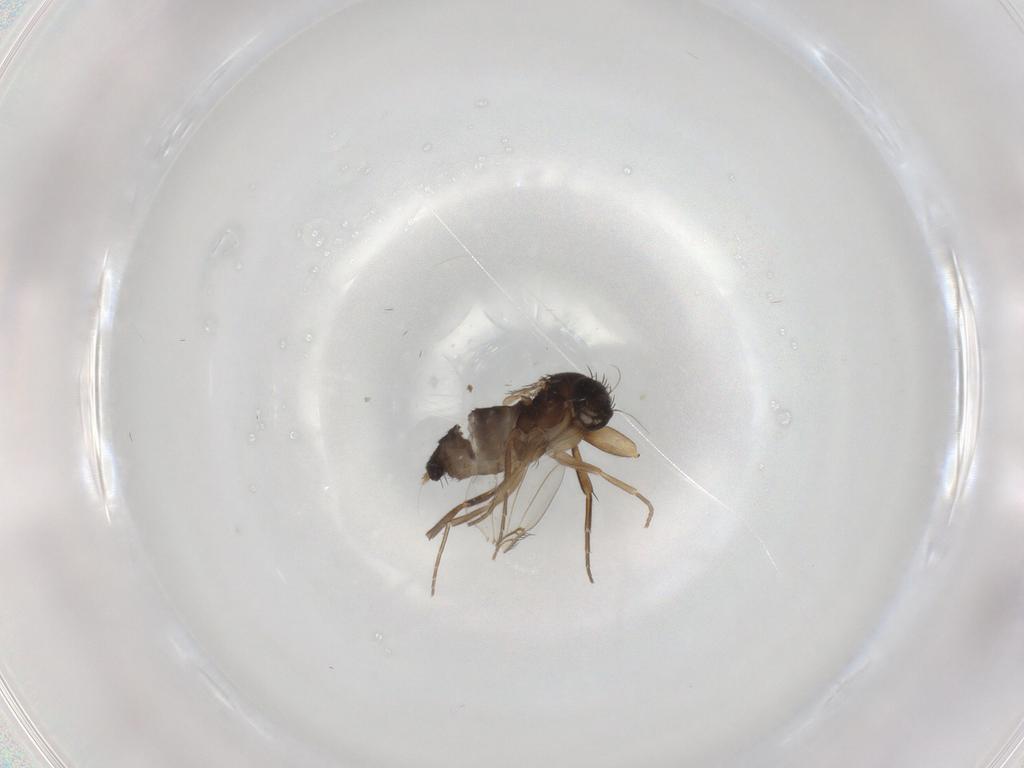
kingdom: Animalia
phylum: Arthropoda
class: Insecta
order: Diptera
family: Phoridae
